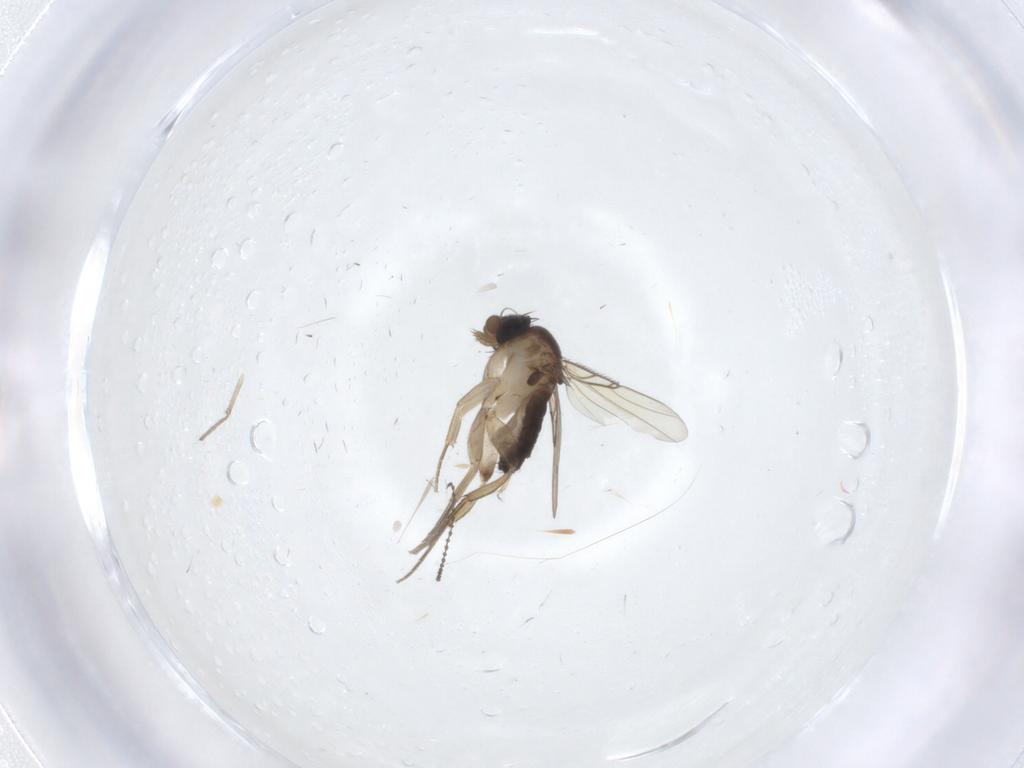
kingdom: Animalia
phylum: Arthropoda
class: Insecta
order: Diptera
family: Phoridae
